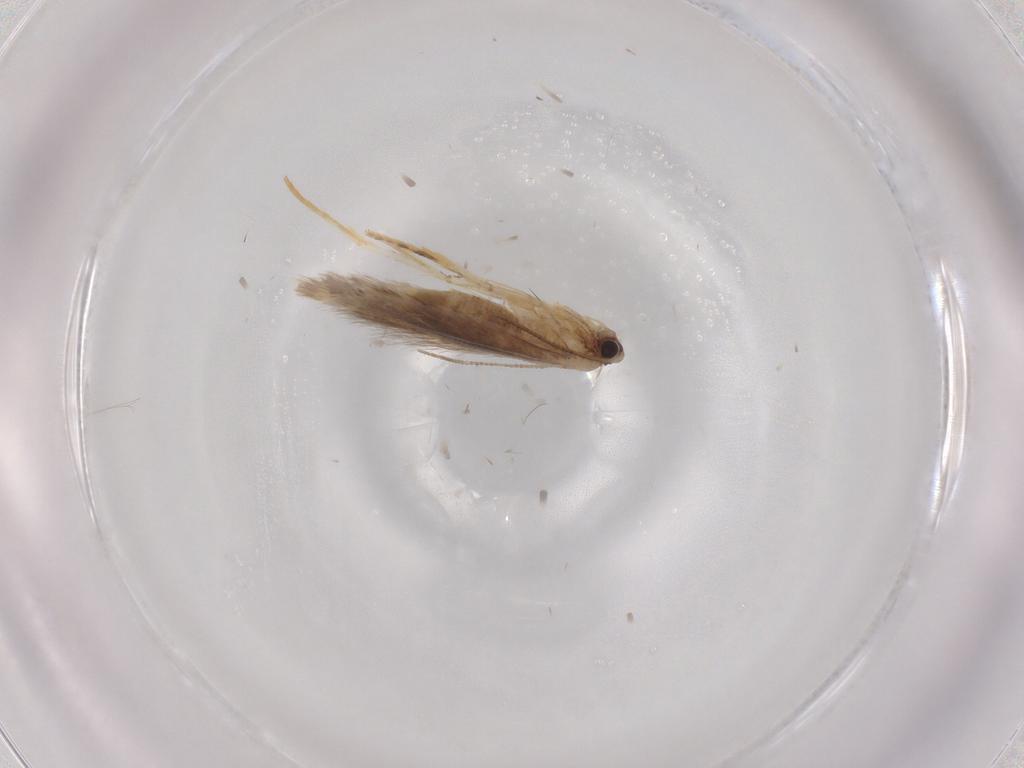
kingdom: Animalia
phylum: Arthropoda
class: Insecta
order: Lepidoptera
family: Tineidae
